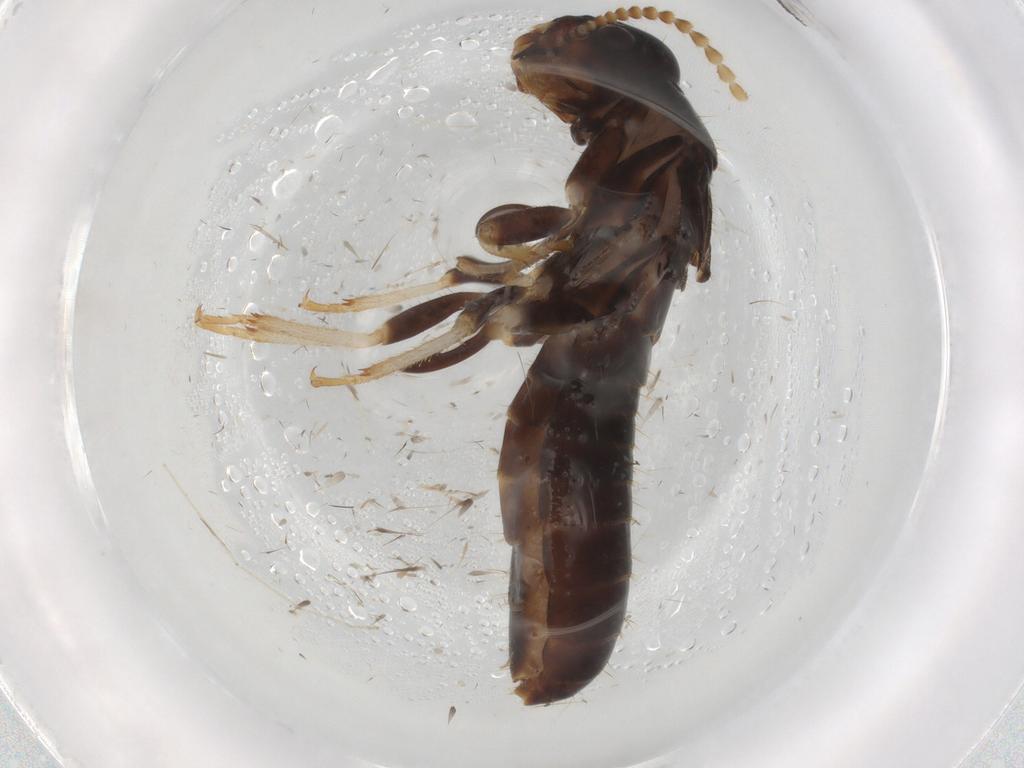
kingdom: Animalia
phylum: Arthropoda
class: Insecta
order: Blattodea
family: Kalotermitidae
